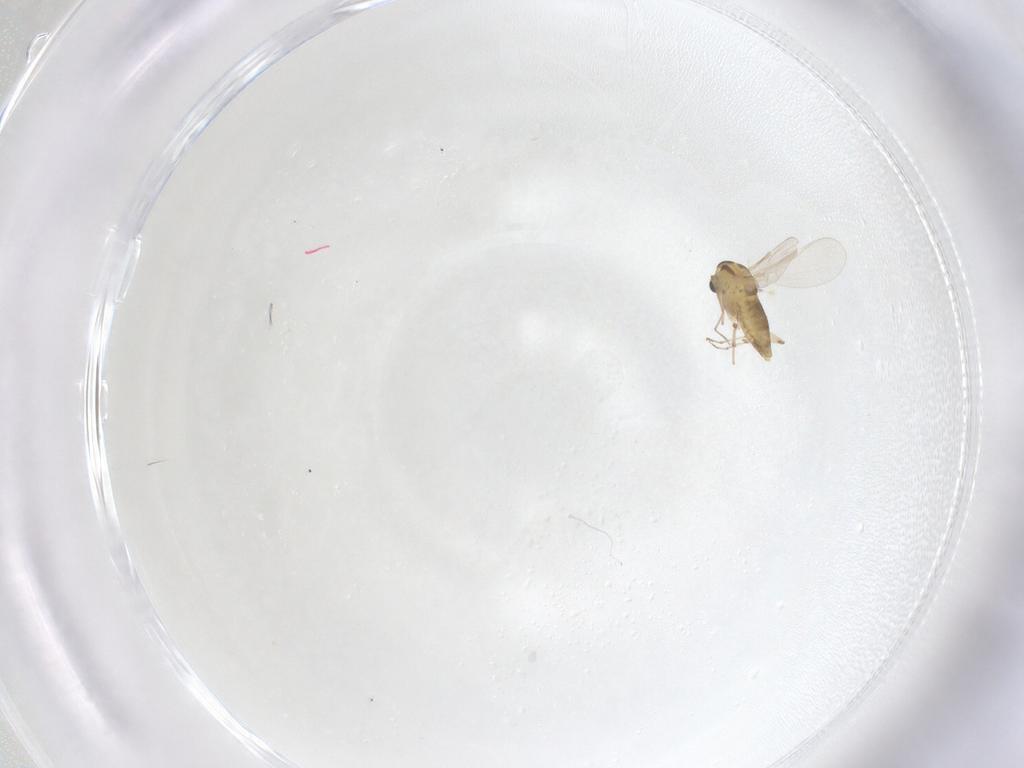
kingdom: Animalia
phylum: Arthropoda
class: Insecta
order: Diptera
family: Chironomidae
